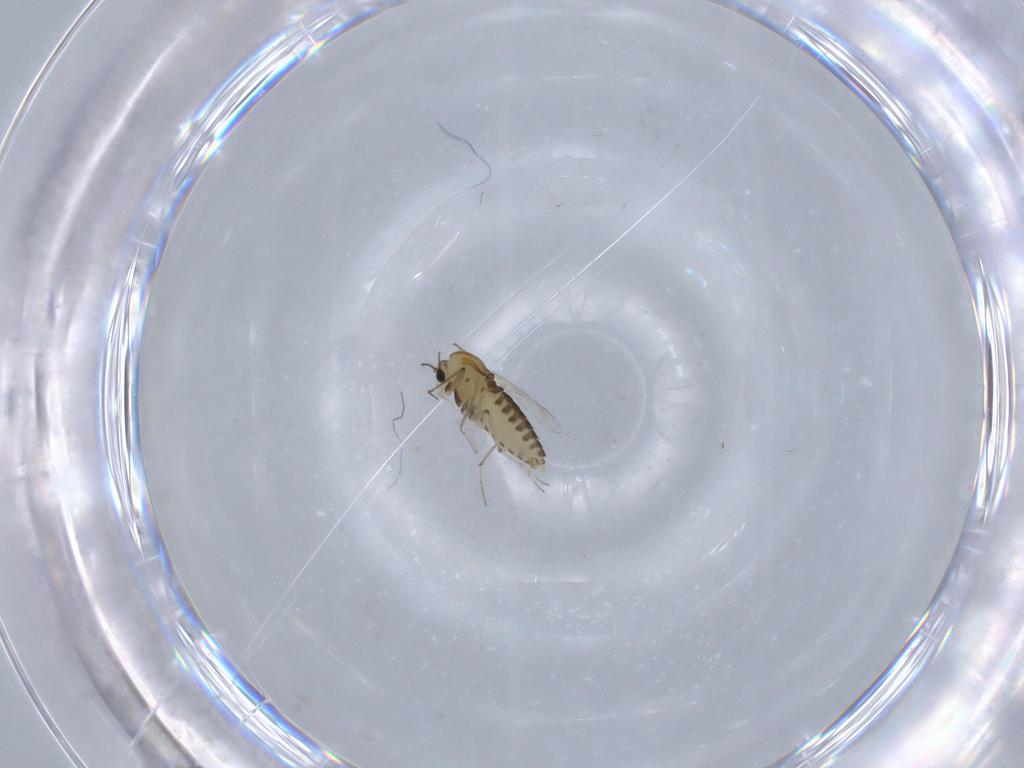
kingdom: Animalia
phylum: Arthropoda
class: Insecta
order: Diptera
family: Chironomidae
